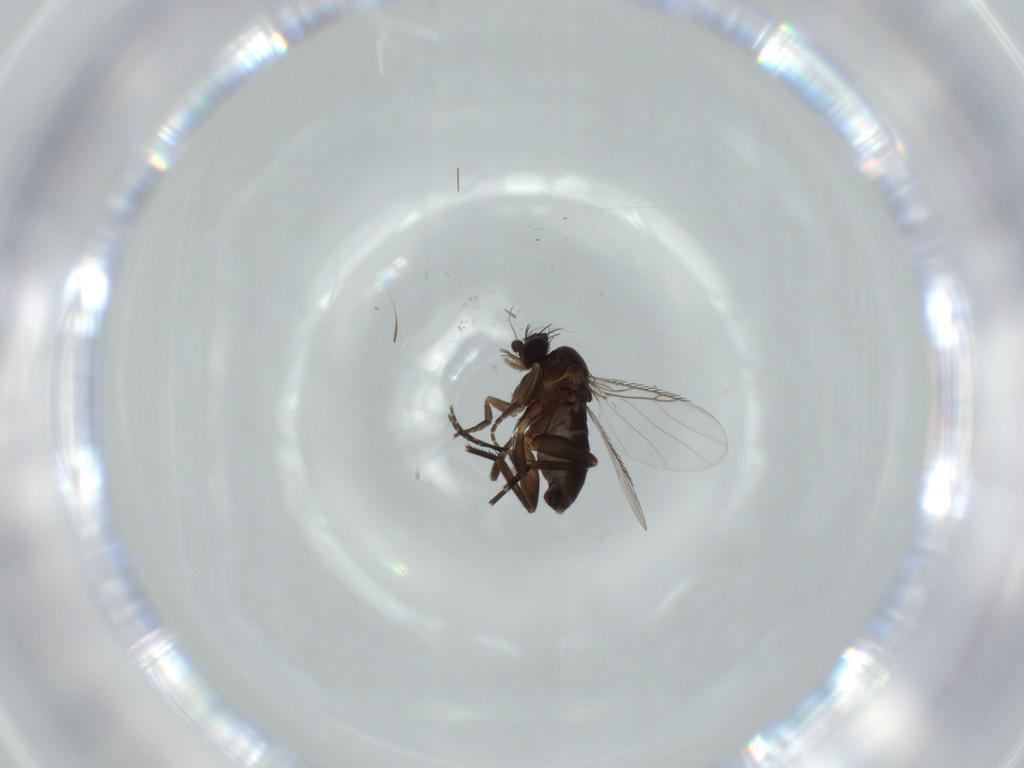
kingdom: Animalia
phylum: Arthropoda
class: Insecta
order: Diptera
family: Phoridae
